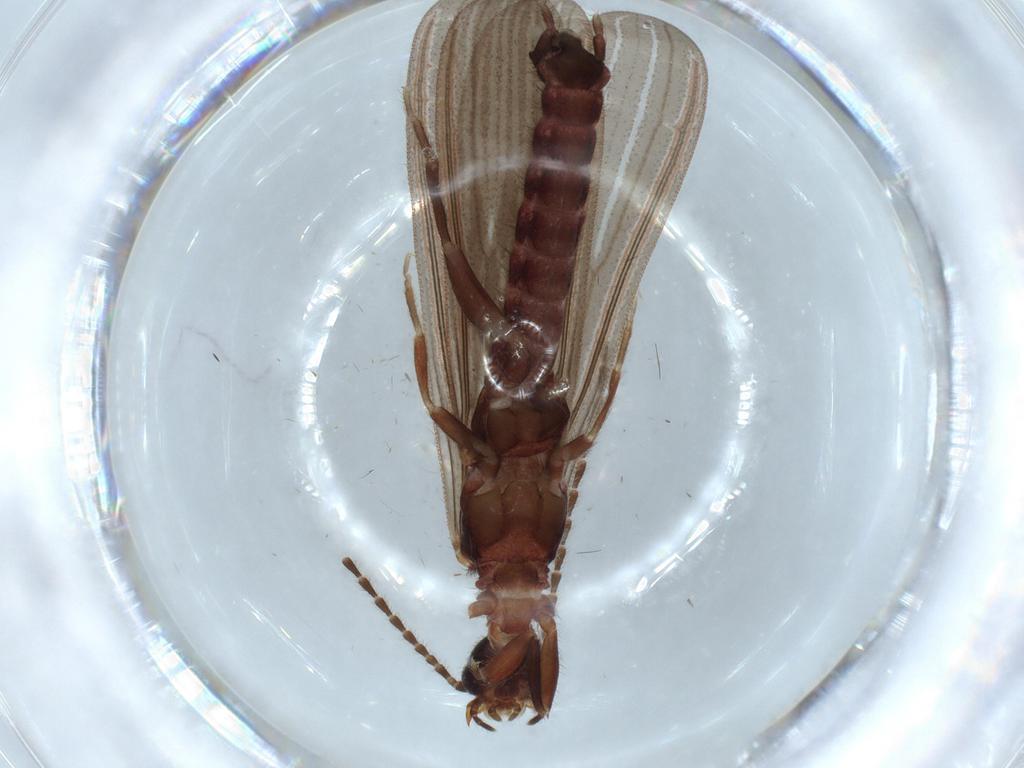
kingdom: Animalia
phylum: Arthropoda
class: Insecta
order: Embioptera
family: Anisembiidae
